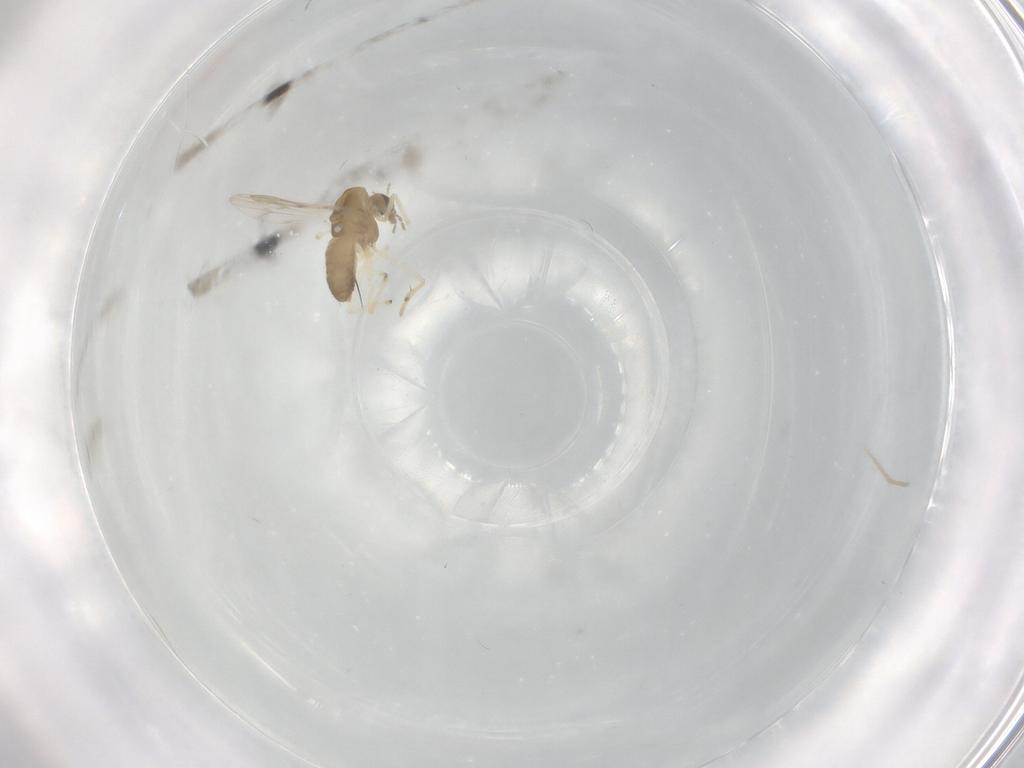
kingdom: Animalia
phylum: Arthropoda
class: Insecta
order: Diptera
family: Chironomidae
